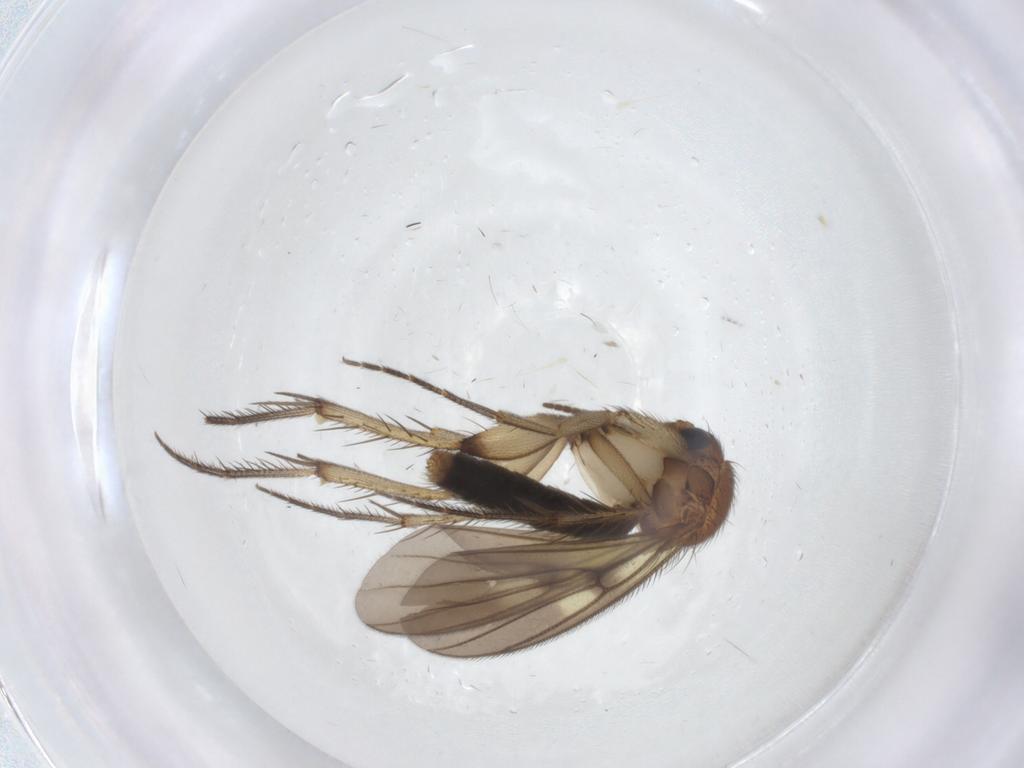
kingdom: Animalia
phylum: Arthropoda
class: Insecta
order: Diptera
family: Mycetophilidae
